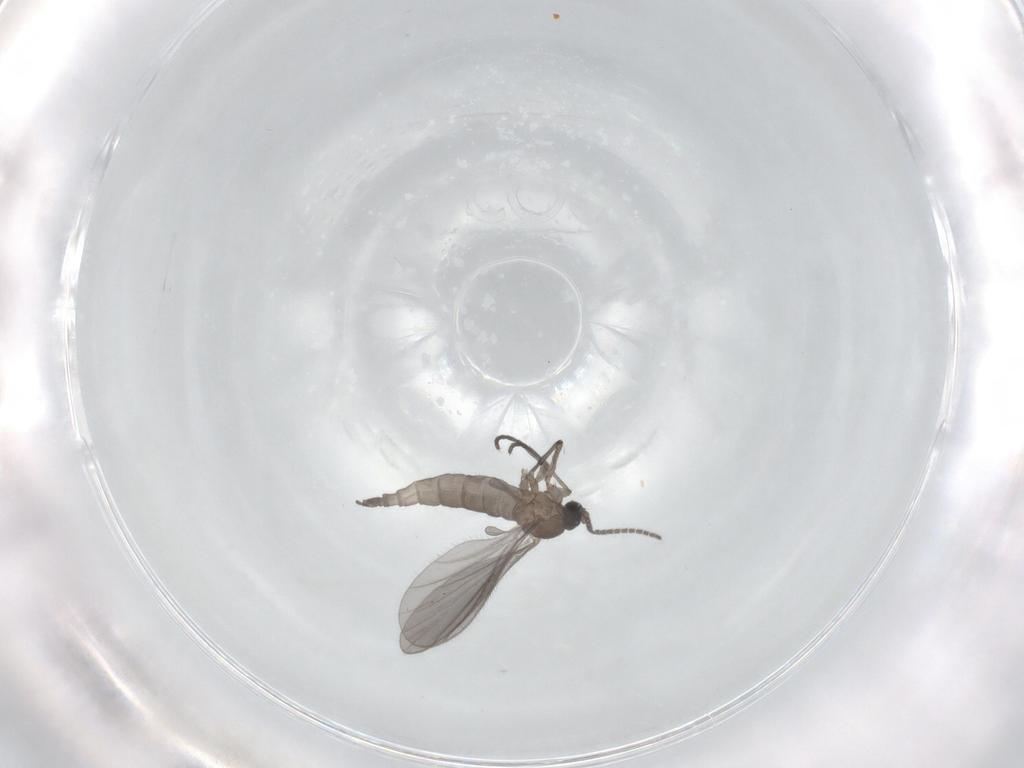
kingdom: Animalia
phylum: Arthropoda
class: Insecta
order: Diptera
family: Sciaridae
